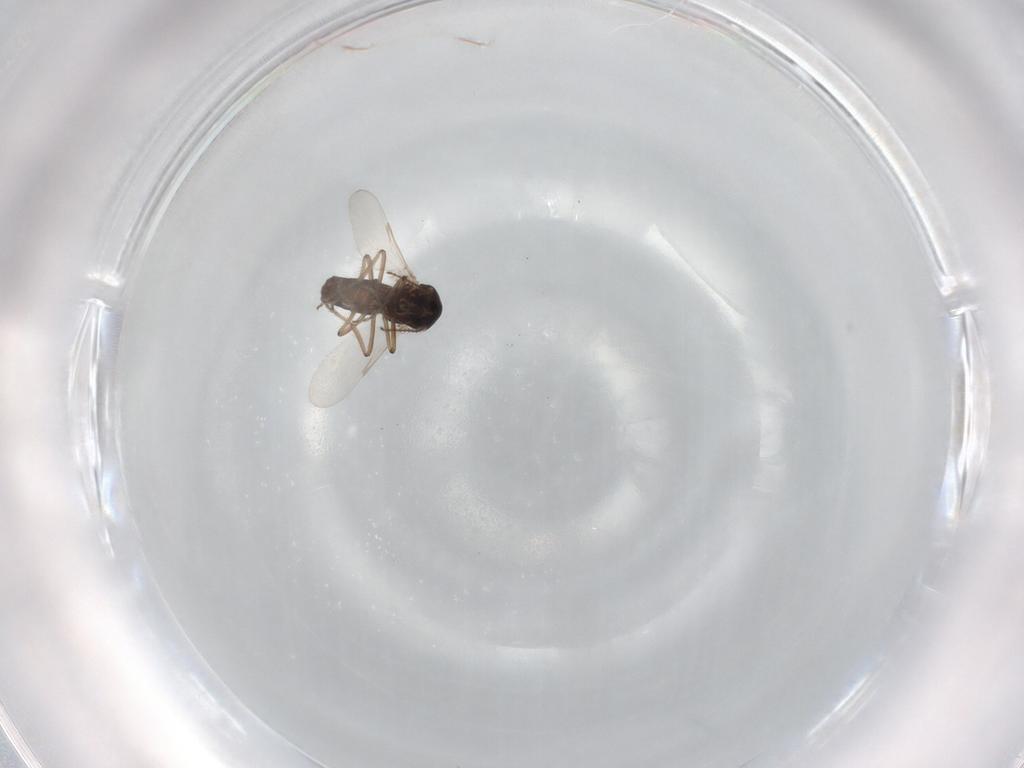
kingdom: Animalia
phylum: Arthropoda
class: Insecta
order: Diptera
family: Ceratopogonidae
